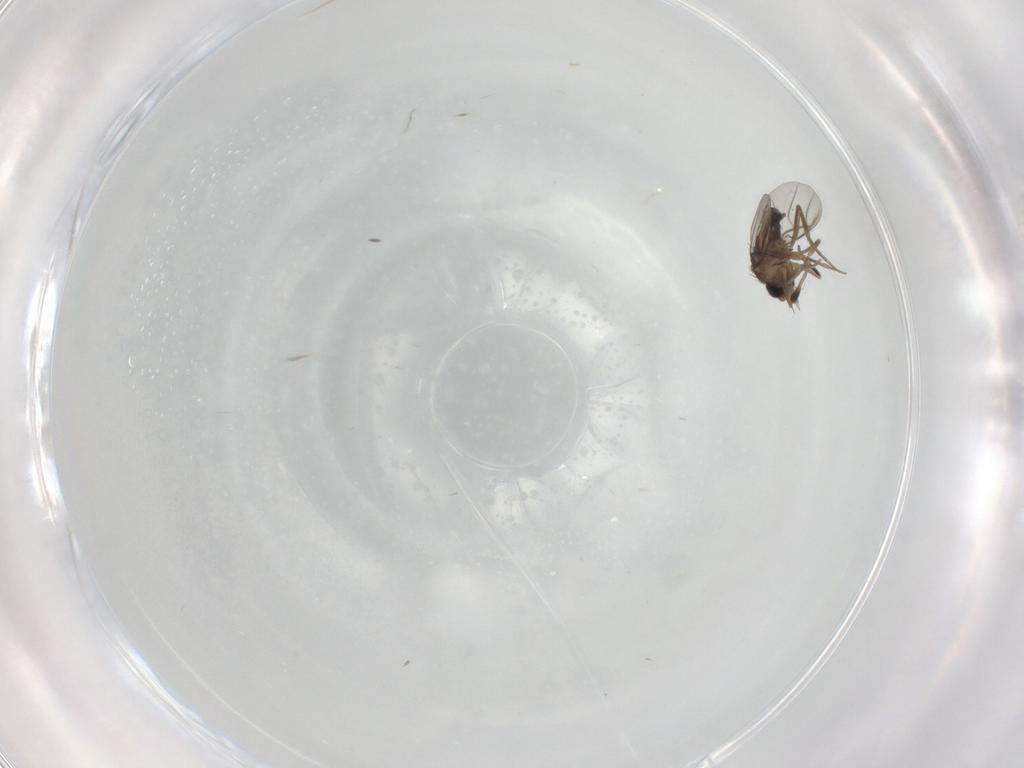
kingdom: Animalia
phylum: Arthropoda
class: Insecta
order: Diptera
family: Phoridae
